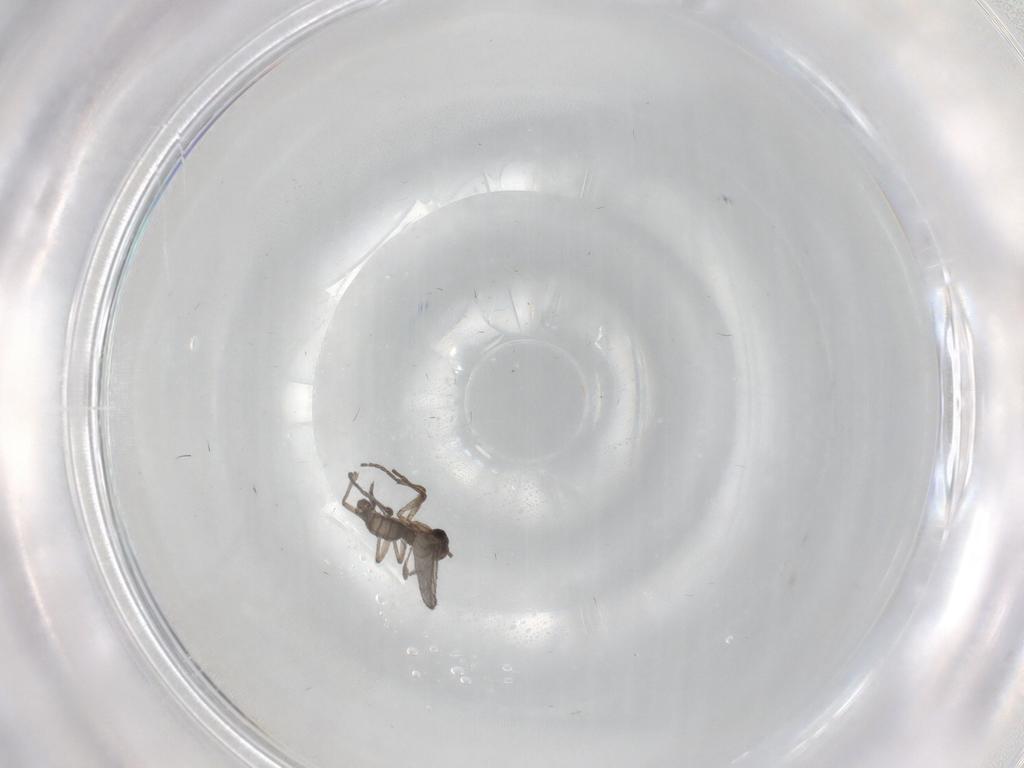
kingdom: Animalia
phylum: Arthropoda
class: Insecta
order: Diptera
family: Sciaridae
